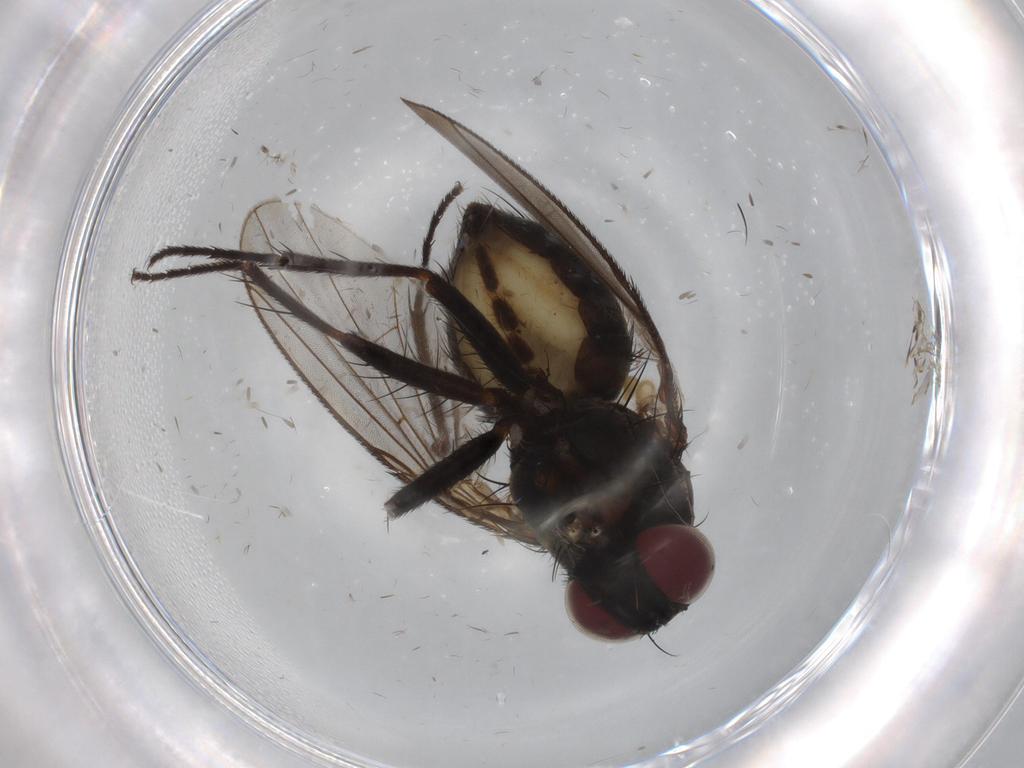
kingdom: Animalia
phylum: Arthropoda
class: Insecta
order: Diptera
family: Muscidae
